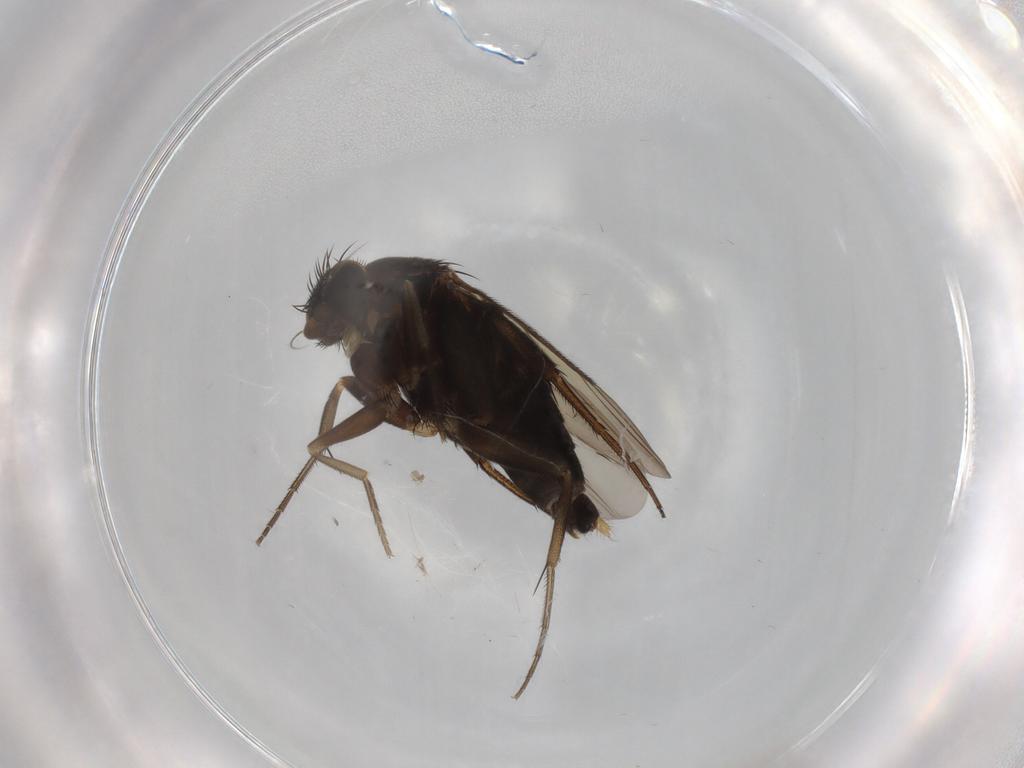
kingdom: Animalia
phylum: Arthropoda
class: Insecta
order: Diptera
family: Phoridae
